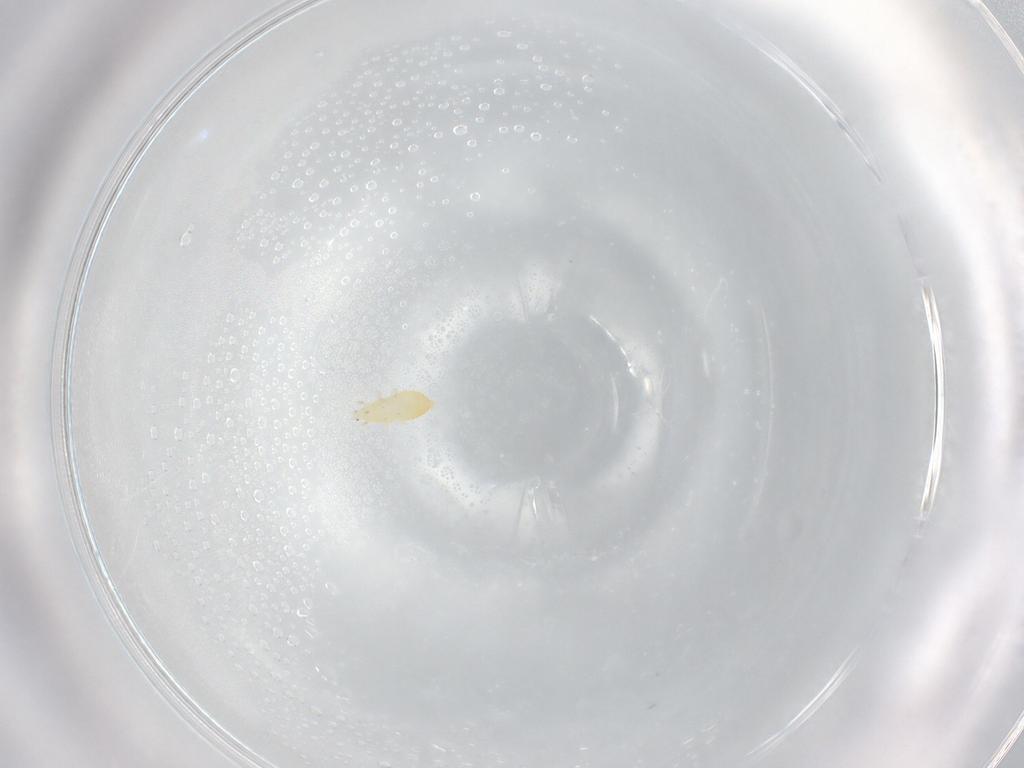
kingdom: Animalia
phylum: Arthropoda
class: Insecta
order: Thysanoptera
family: Thripidae
